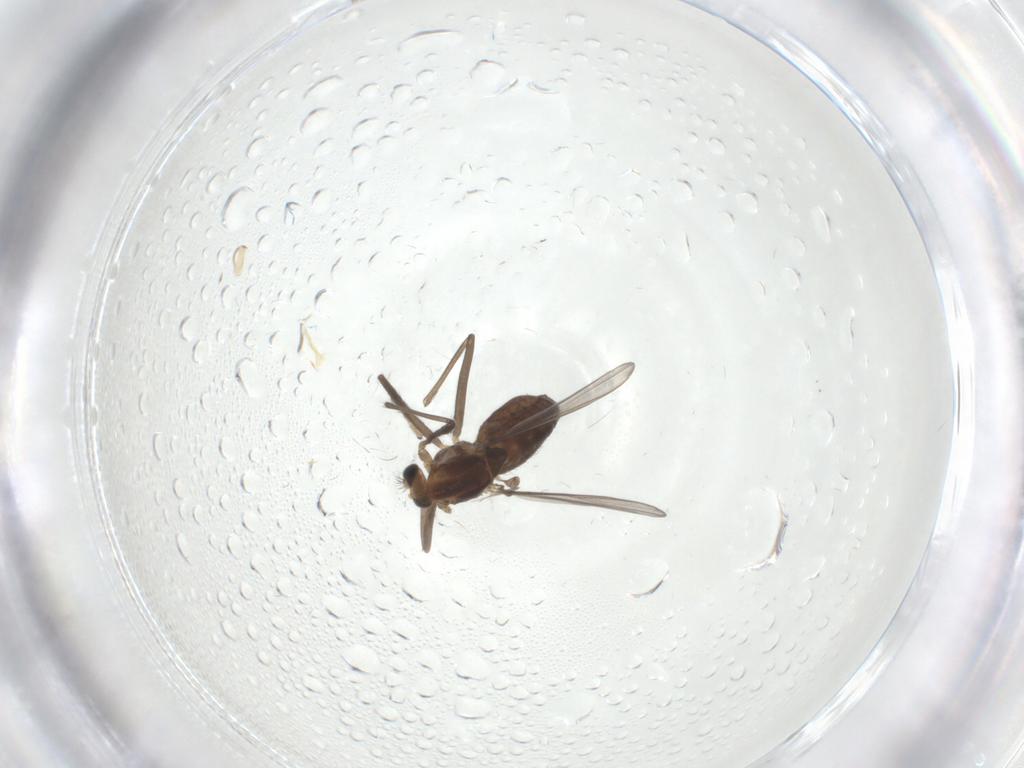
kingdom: Animalia
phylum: Arthropoda
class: Insecta
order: Diptera
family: Chironomidae
